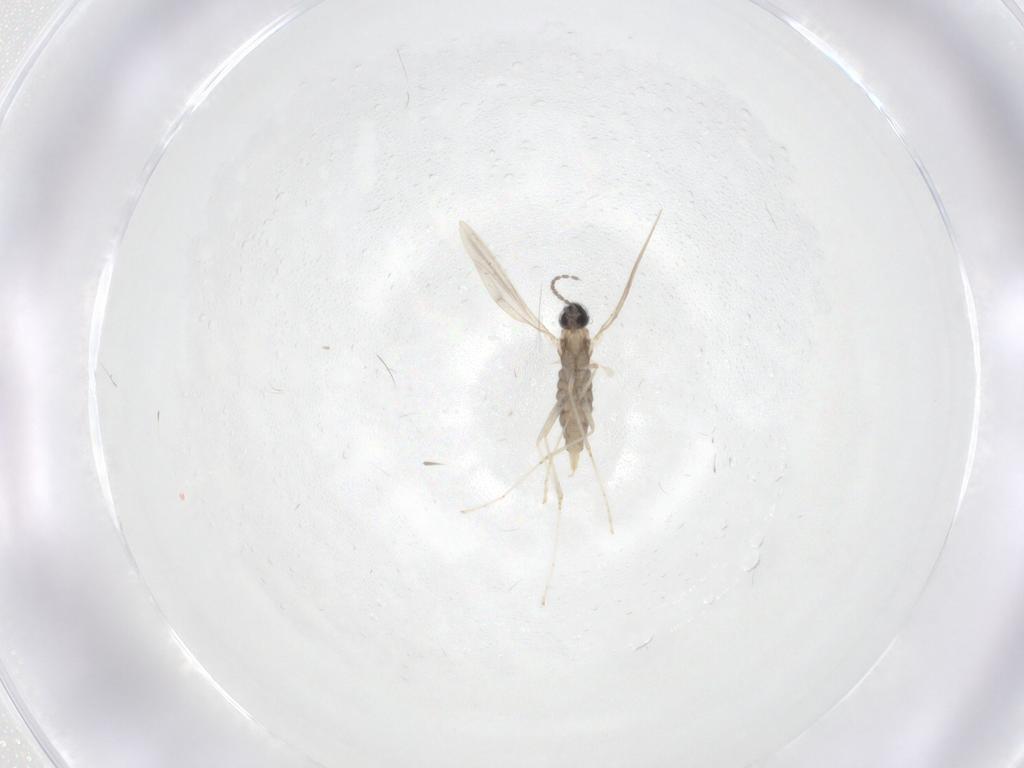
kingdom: Animalia
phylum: Arthropoda
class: Insecta
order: Diptera
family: Cecidomyiidae
